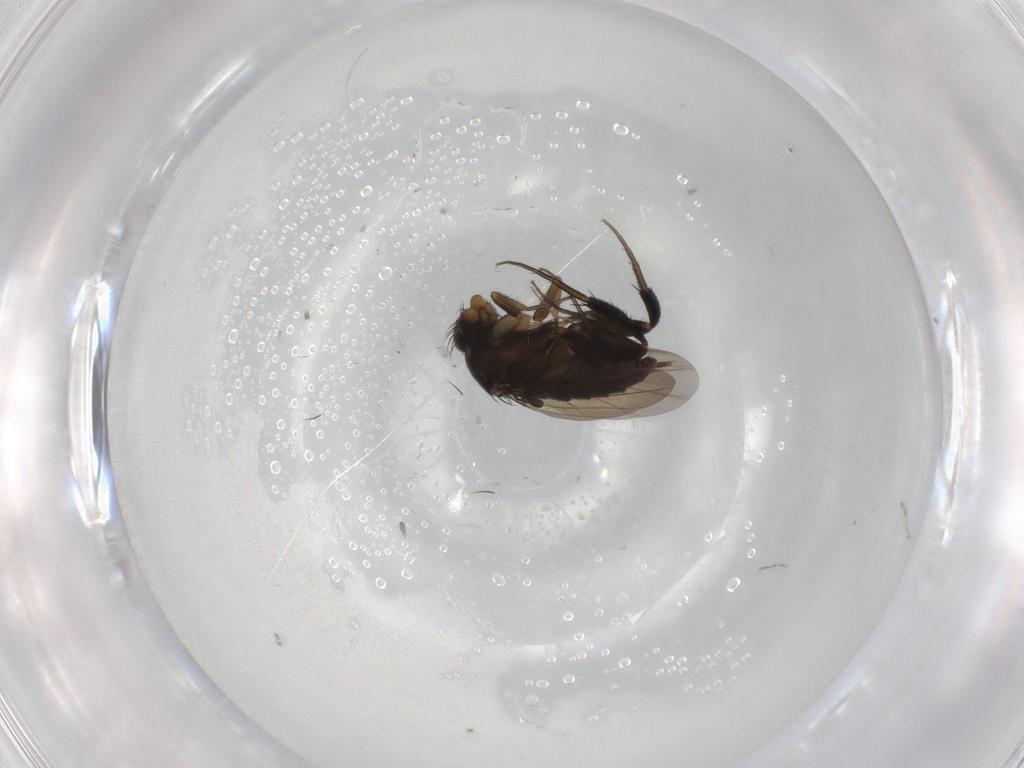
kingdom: Animalia
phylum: Arthropoda
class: Insecta
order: Diptera
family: Phoridae
